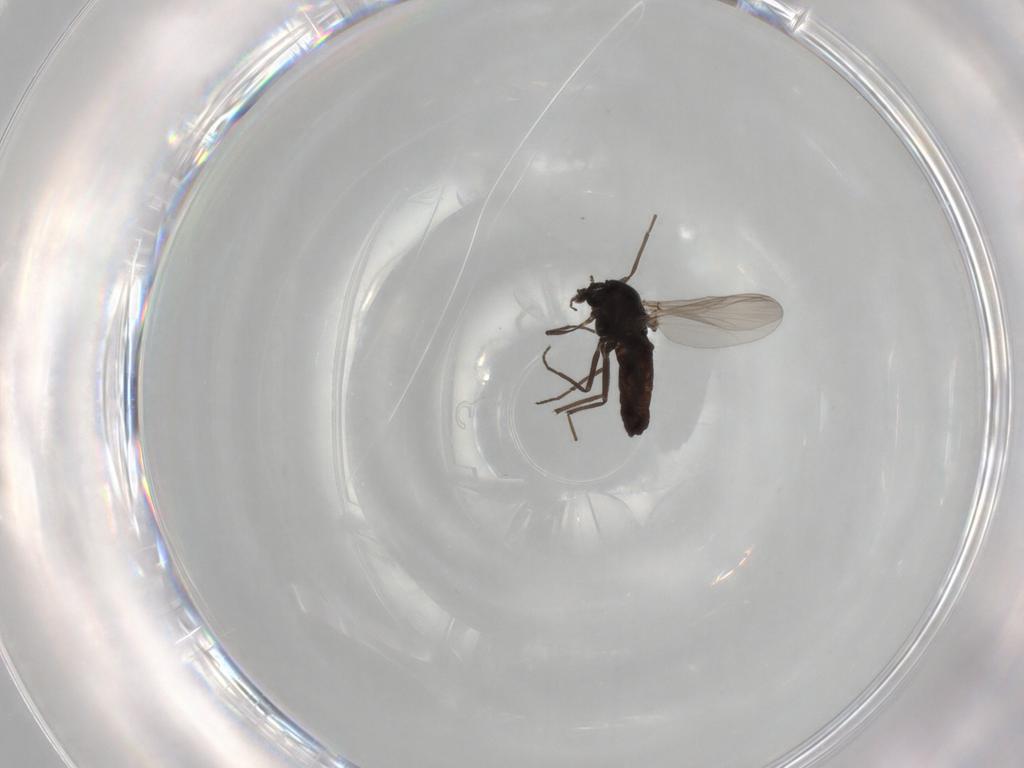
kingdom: Animalia
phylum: Arthropoda
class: Insecta
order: Diptera
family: Chironomidae
